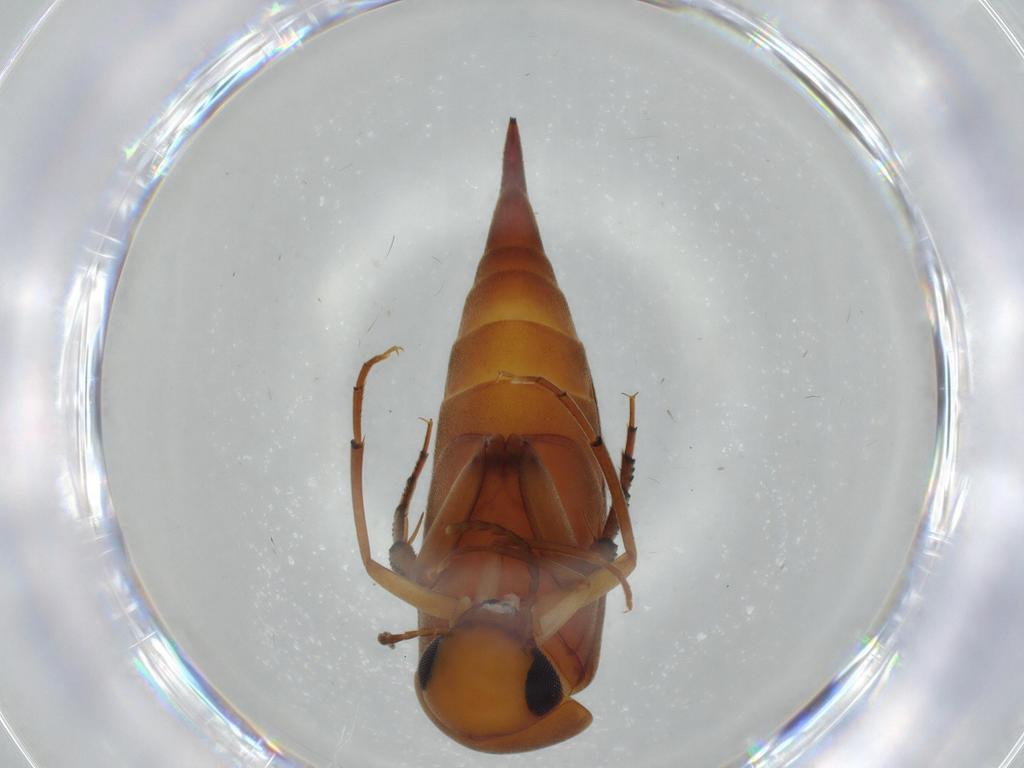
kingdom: Animalia
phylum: Arthropoda
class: Insecta
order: Coleoptera
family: Mordellidae
